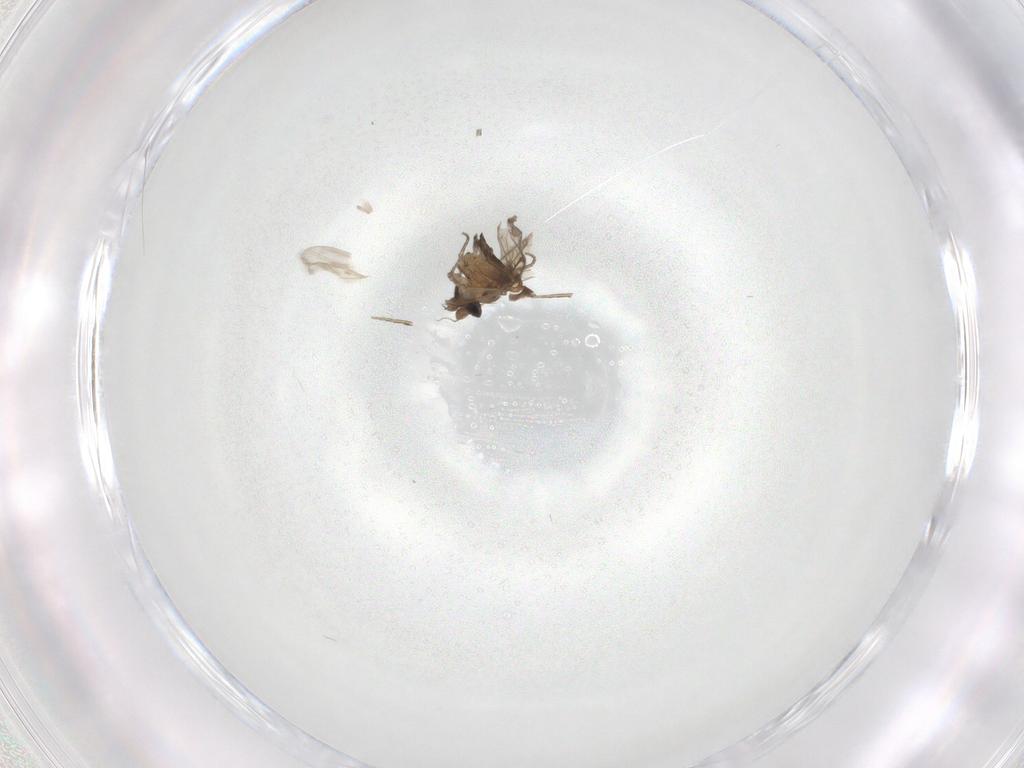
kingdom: Animalia
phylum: Arthropoda
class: Insecta
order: Diptera
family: Phoridae
